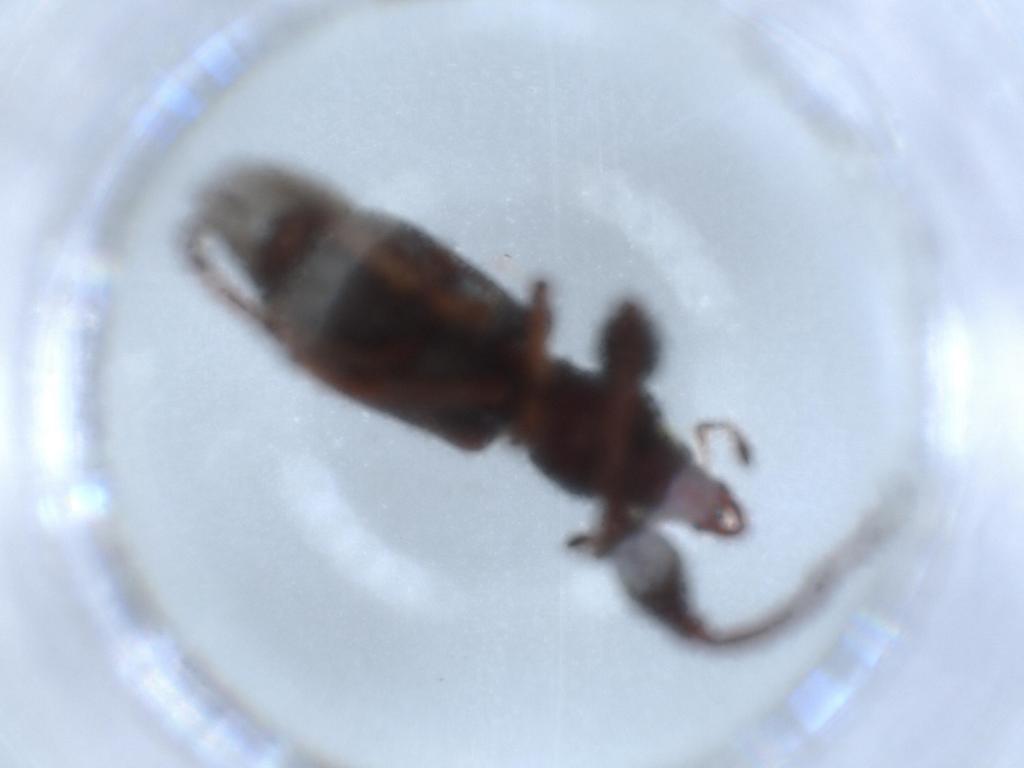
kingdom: Animalia
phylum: Arthropoda
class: Insecta
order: Coleoptera
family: Curculionidae
